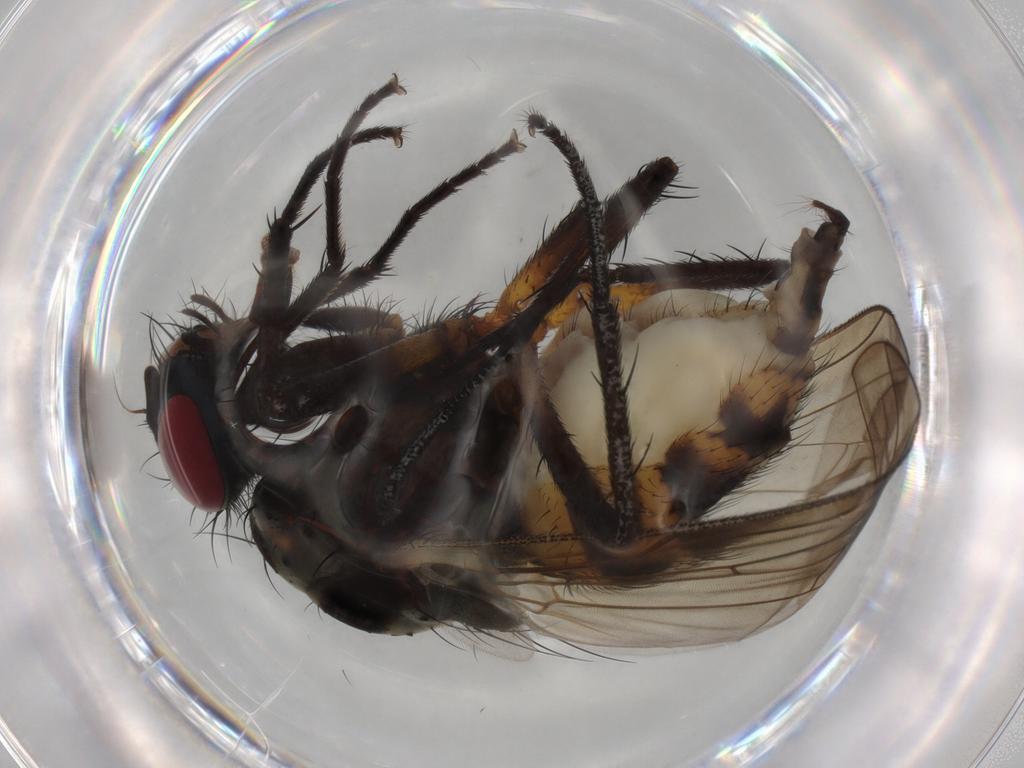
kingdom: Animalia
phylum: Arthropoda
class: Insecta
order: Diptera
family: Anthomyiidae
